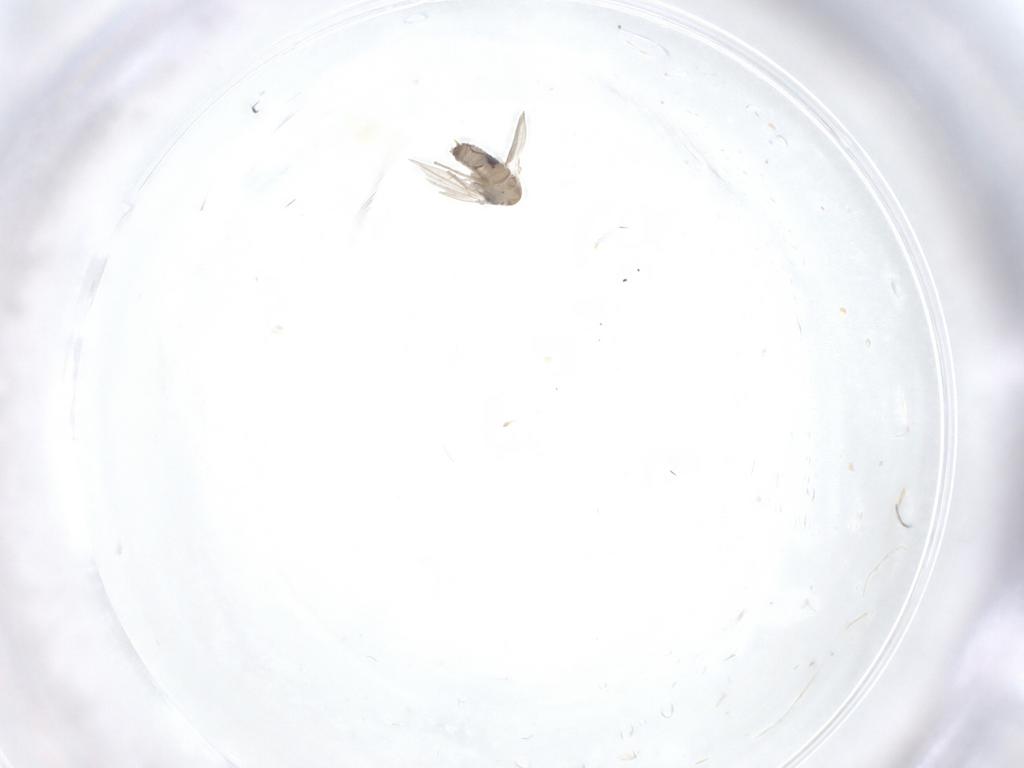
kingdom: Animalia
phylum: Arthropoda
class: Insecta
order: Diptera
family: Psychodidae
